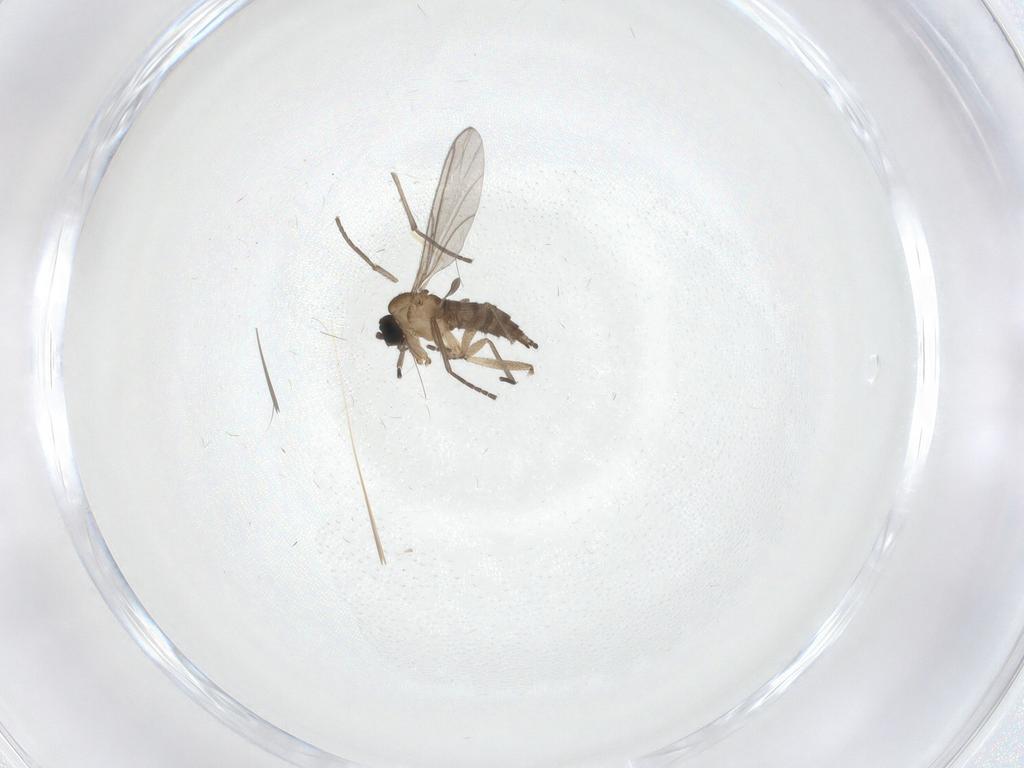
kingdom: Animalia
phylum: Arthropoda
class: Insecta
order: Diptera
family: Sciaridae
